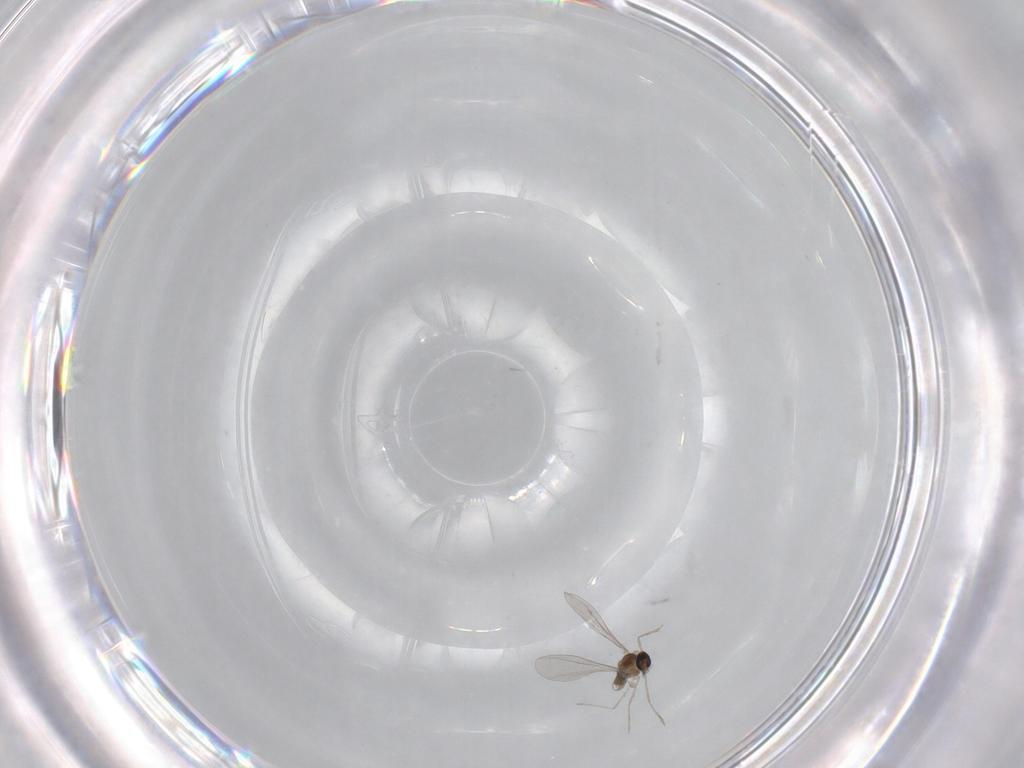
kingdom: Animalia
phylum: Arthropoda
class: Insecta
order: Diptera
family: Sciaridae
